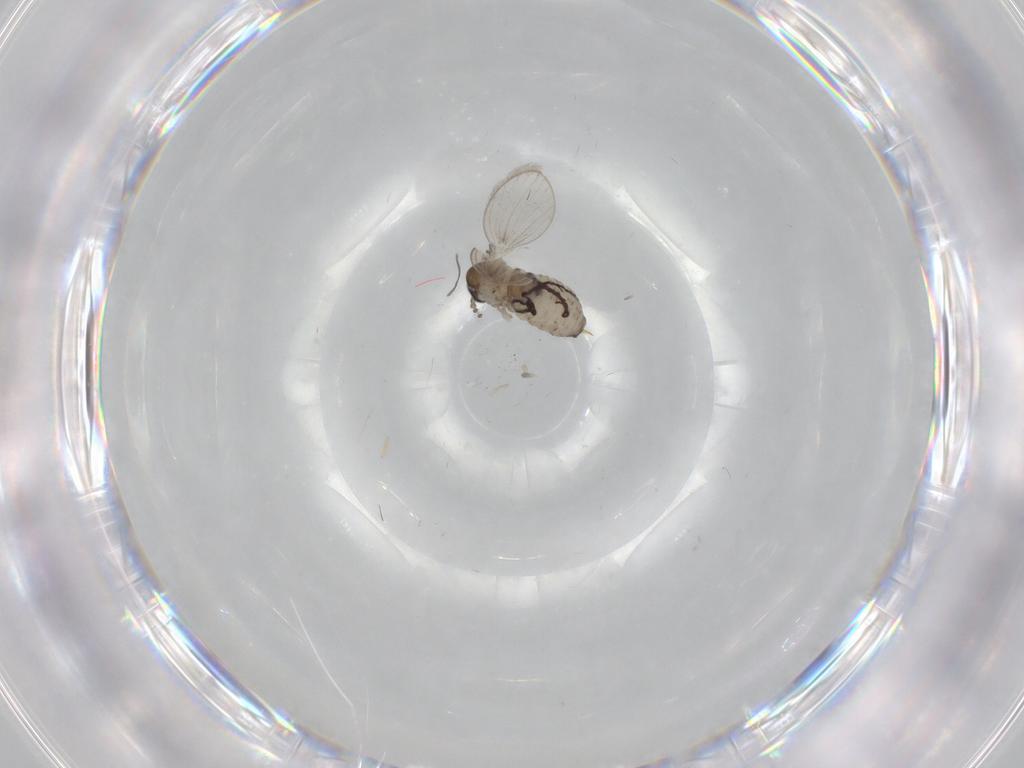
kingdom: Animalia
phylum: Arthropoda
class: Insecta
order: Diptera
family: Psychodidae
